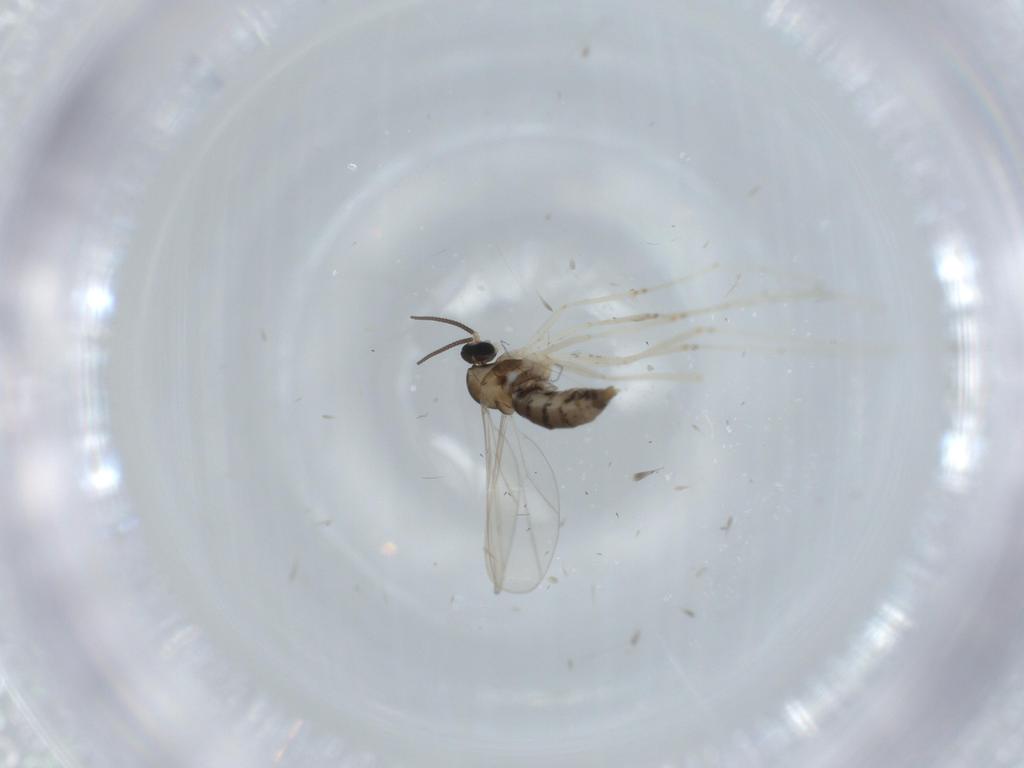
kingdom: Animalia
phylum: Arthropoda
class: Insecta
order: Diptera
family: Cecidomyiidae
